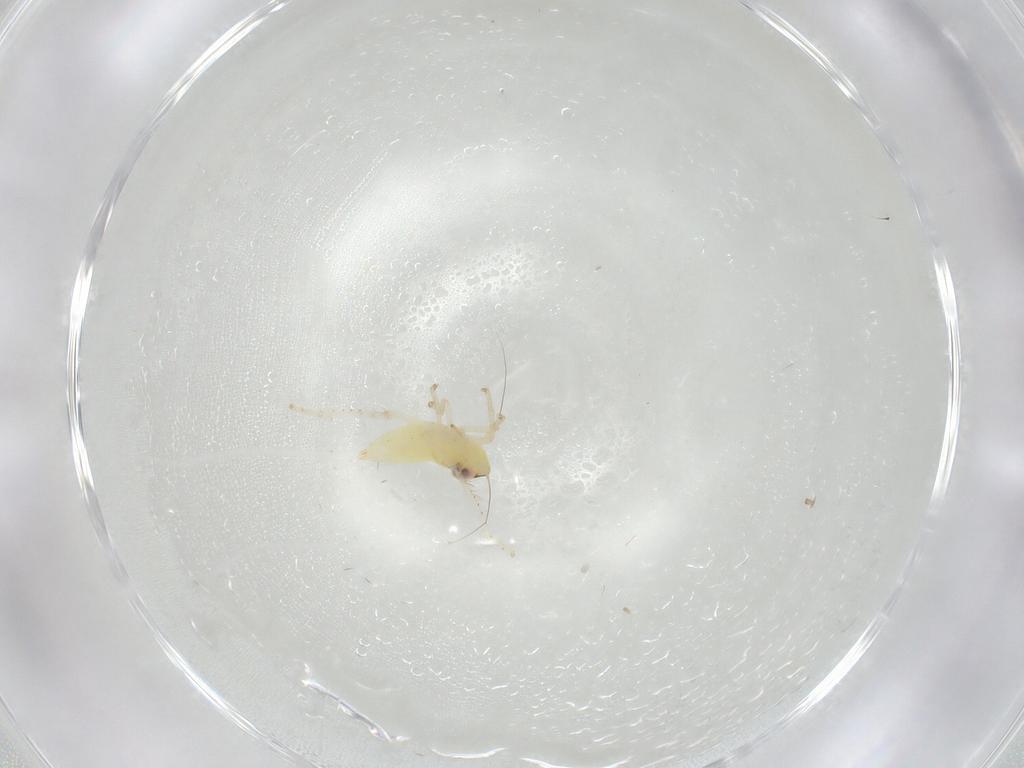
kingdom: Animalia
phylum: Arthropoda
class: Insecta
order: Hemiptera
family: Cicadellidae
